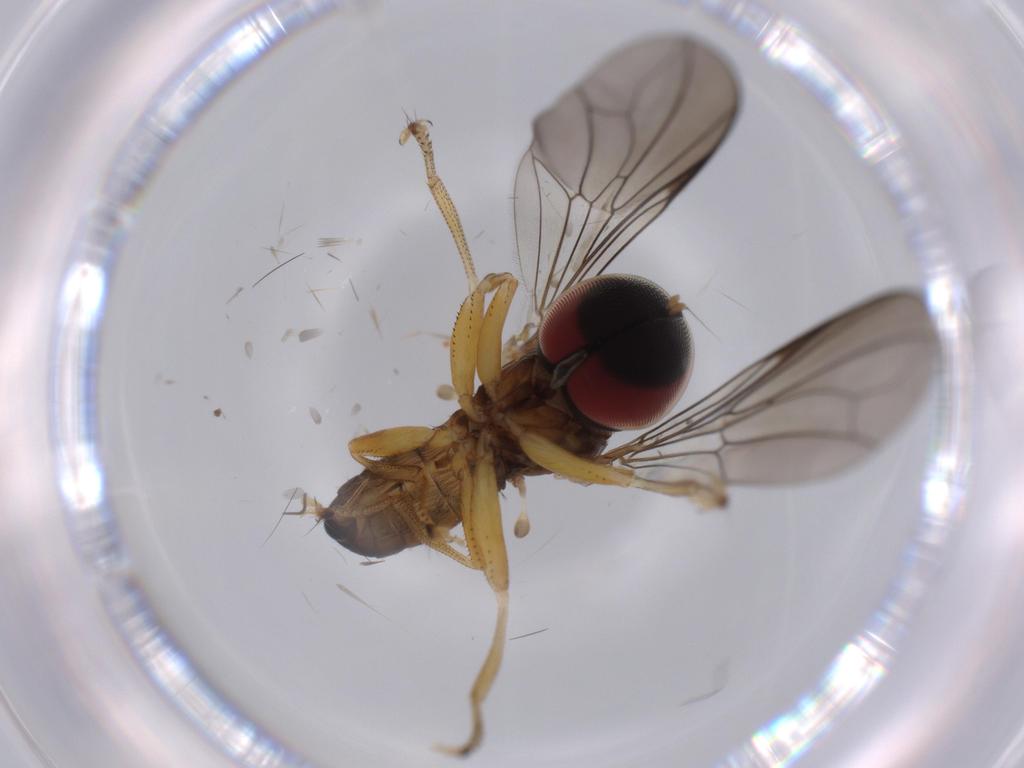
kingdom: Animalia
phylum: Arthropoda
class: Insecta
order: Diptera
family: Pipunculidae
